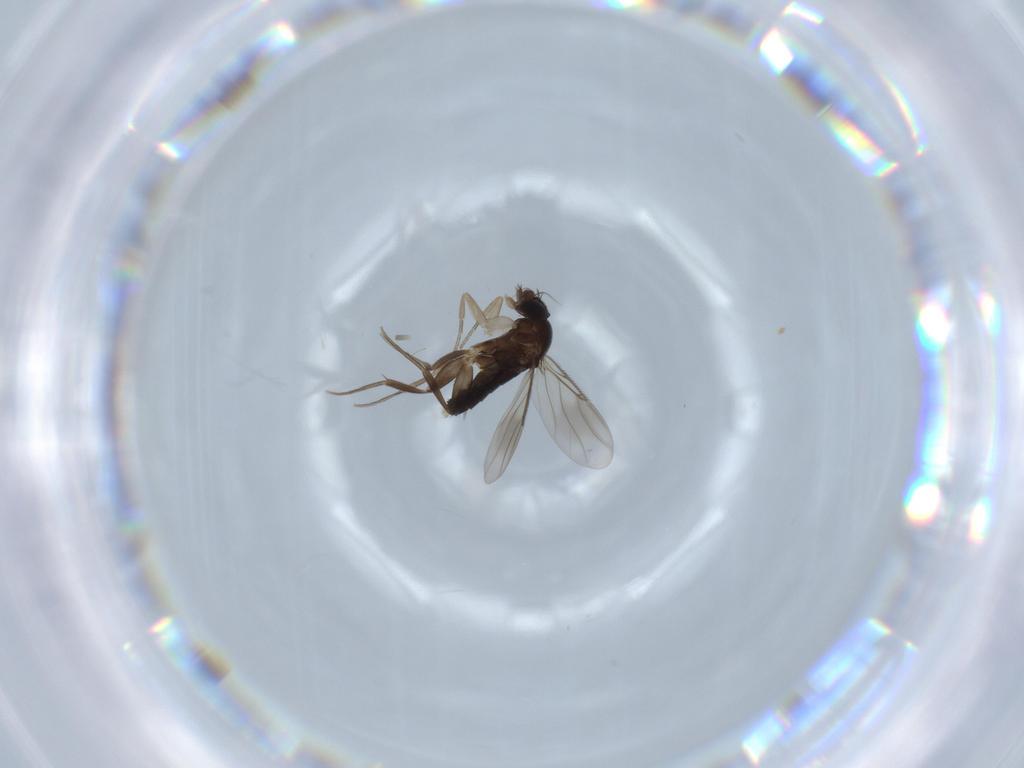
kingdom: Animalia
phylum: Arthropoda
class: Insecta
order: Diptera
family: Phoridae
